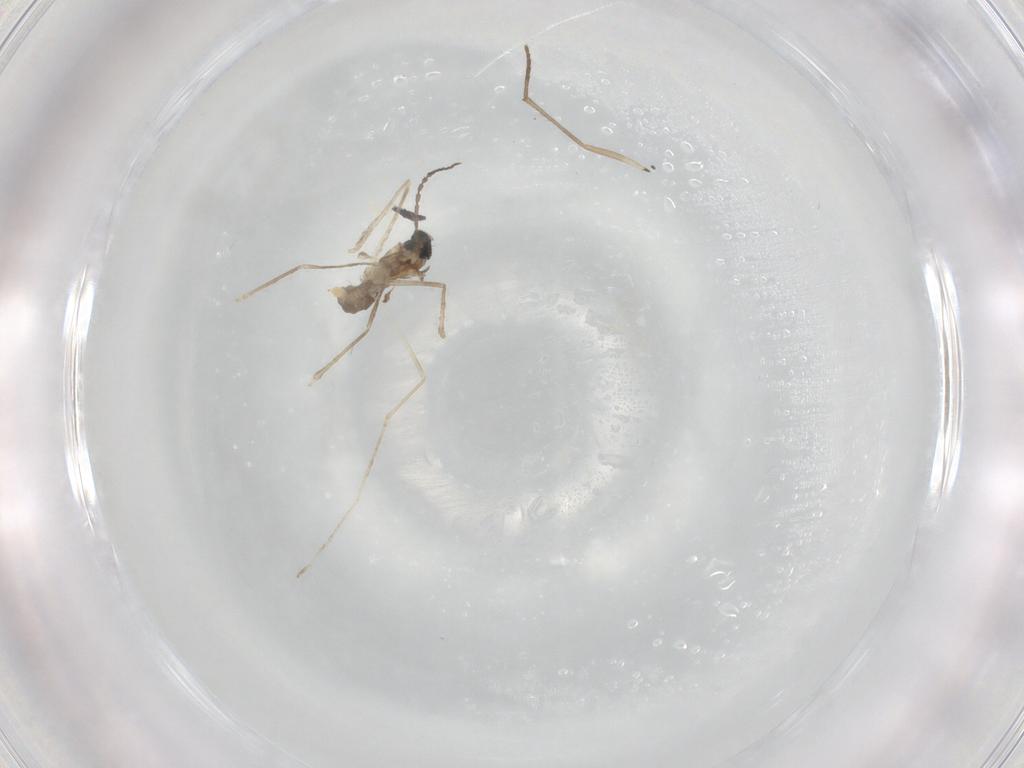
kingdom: Animalia
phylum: Arthropoda
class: Insecta
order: Diptera
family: Cecidomyiidae
